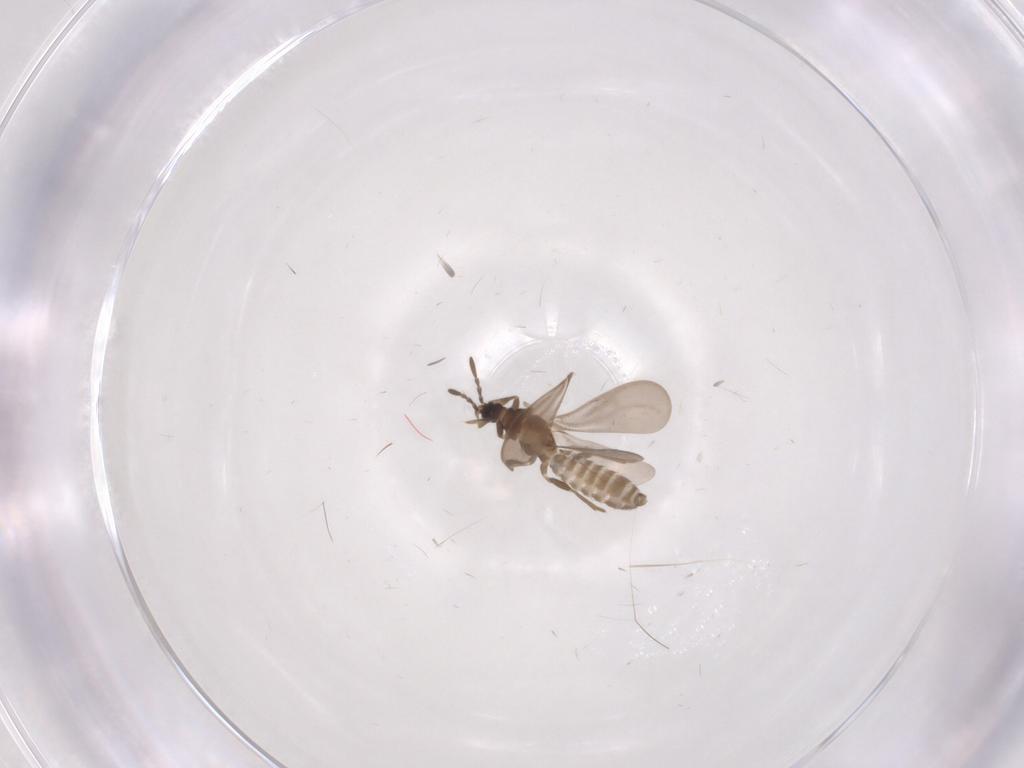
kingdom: Animalia
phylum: Arthropoda
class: Insecta
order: Hemiptera
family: Enicocephalidae
